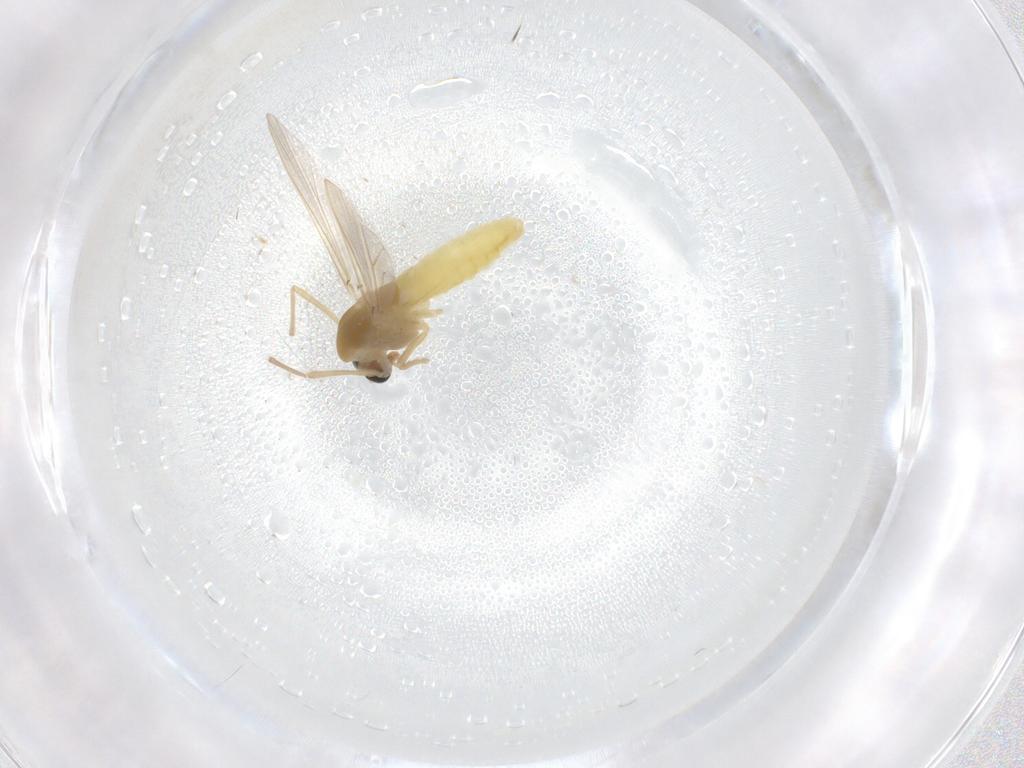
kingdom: Animalia
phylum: Arthropoda
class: Insecta
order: Diptera
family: Chironomidae
